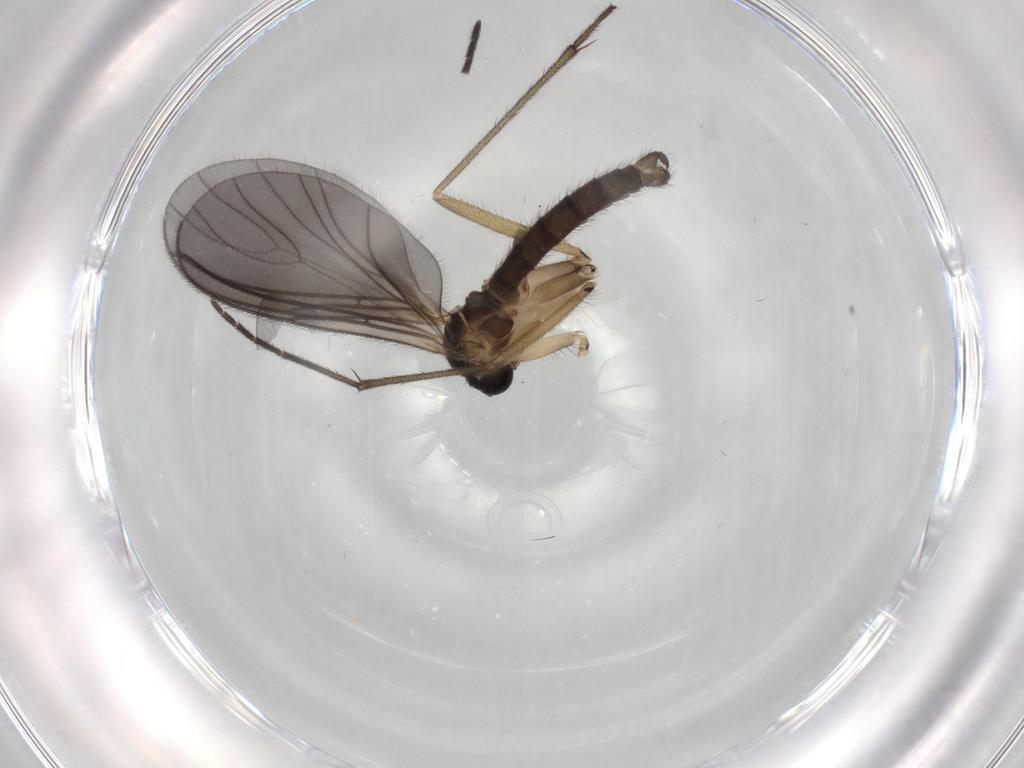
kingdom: Animalia
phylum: Arthropoda
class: Insecta
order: Diptera
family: Sciaridae
